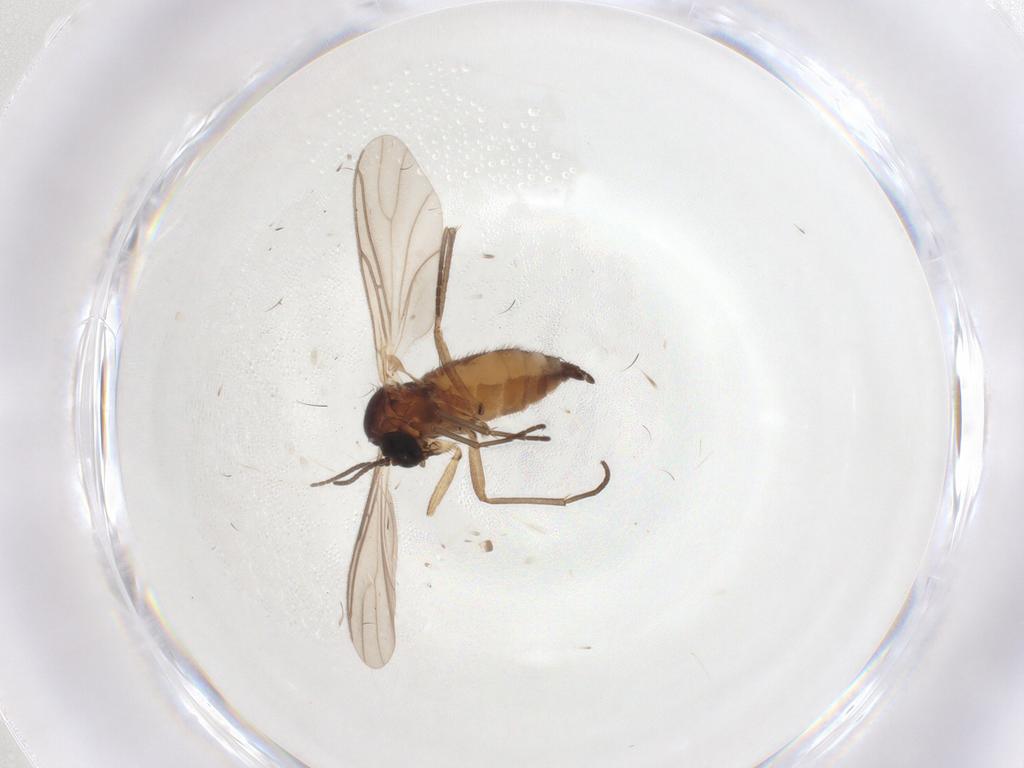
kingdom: Animalia
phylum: Arthropoda
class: Insecta
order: Diptera
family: Sciaridae
